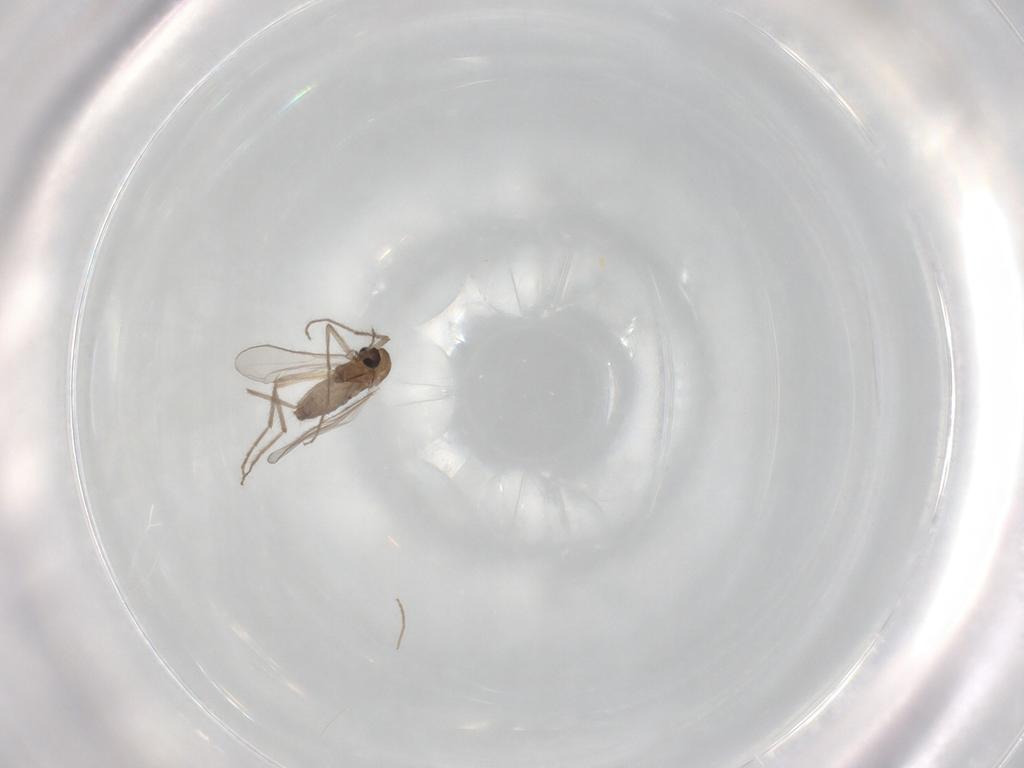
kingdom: Animalia
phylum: Arthropoda
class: Insecta
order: Diptera
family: Chironomidae
